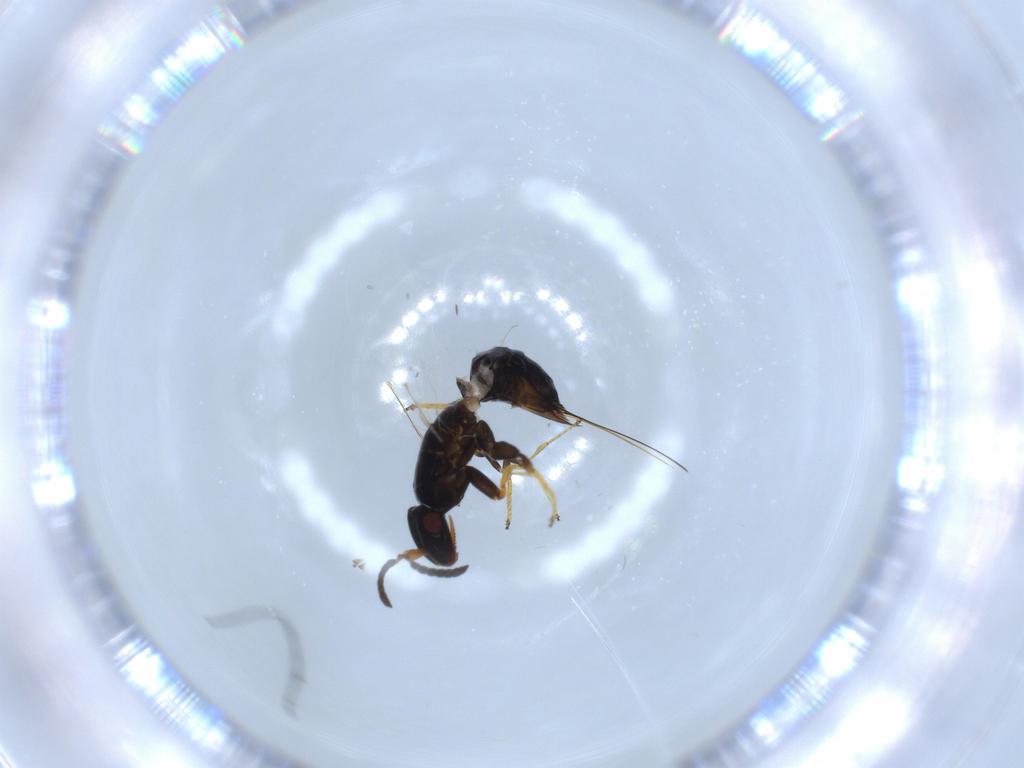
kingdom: Animalia
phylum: Arthropoda
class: Insecta
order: Hymenoptera
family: Agaonidae
